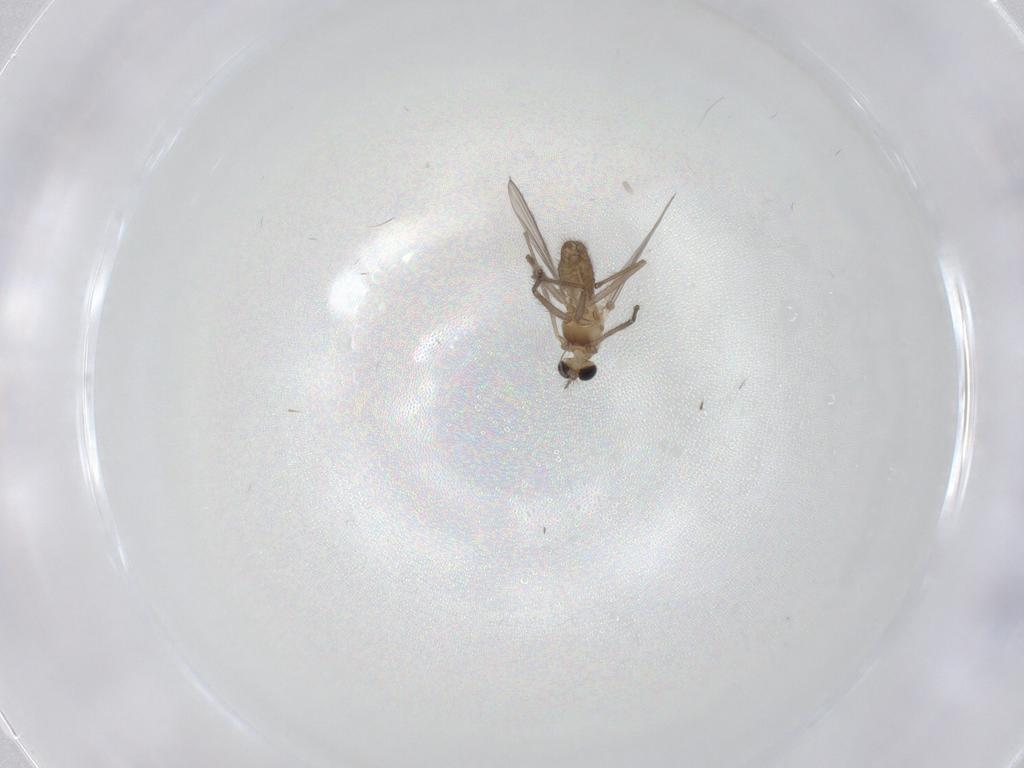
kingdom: Animalia
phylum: Arthropoda
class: Insecta
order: Diptera
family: Chironomidae
